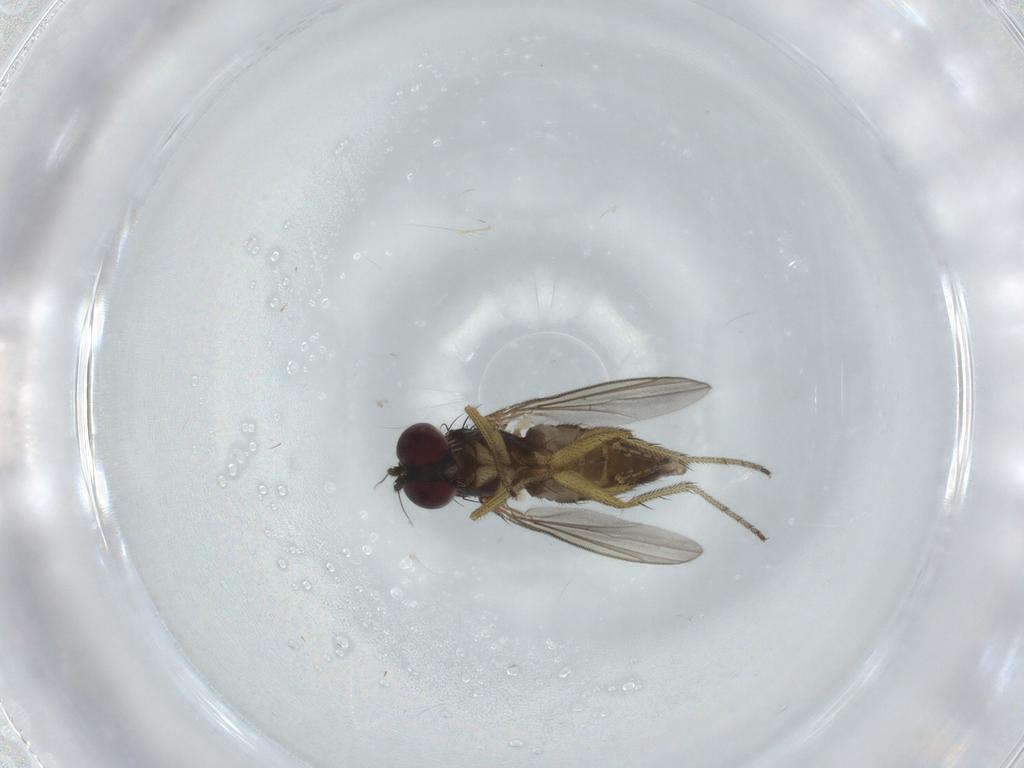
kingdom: Animalia
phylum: Arthropoda
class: Insecta
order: Diptera
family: Dolichopodidae
